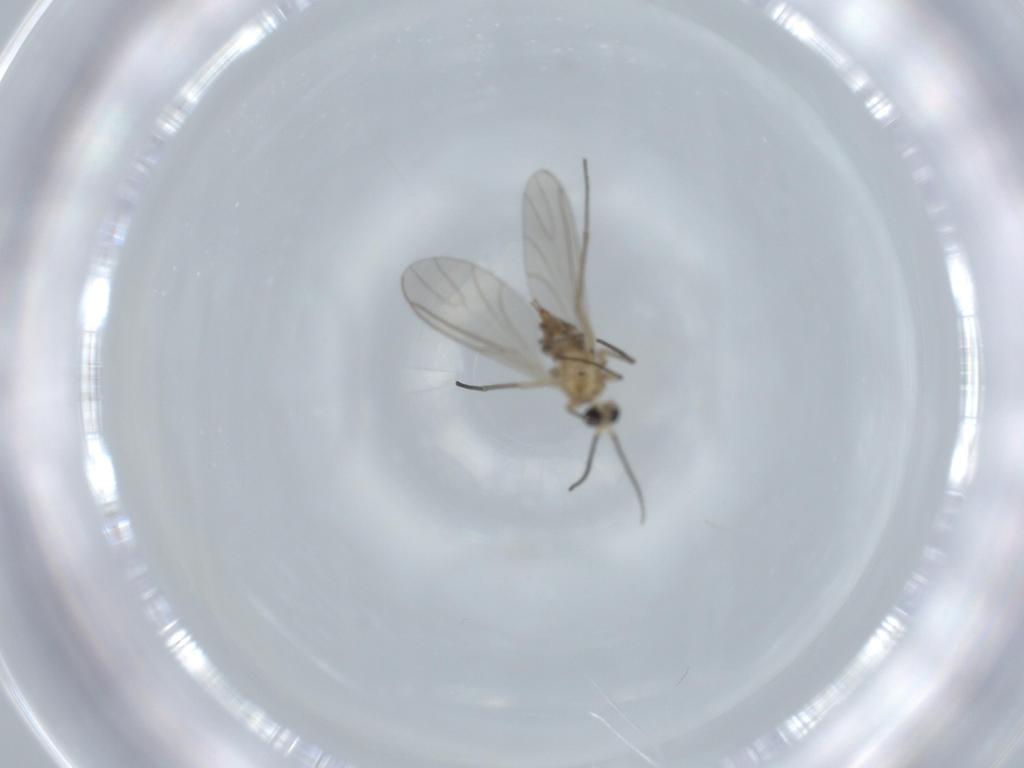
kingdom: Animalia
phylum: Arthropoda
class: Insecta
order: Diptera
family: Sciaridae
